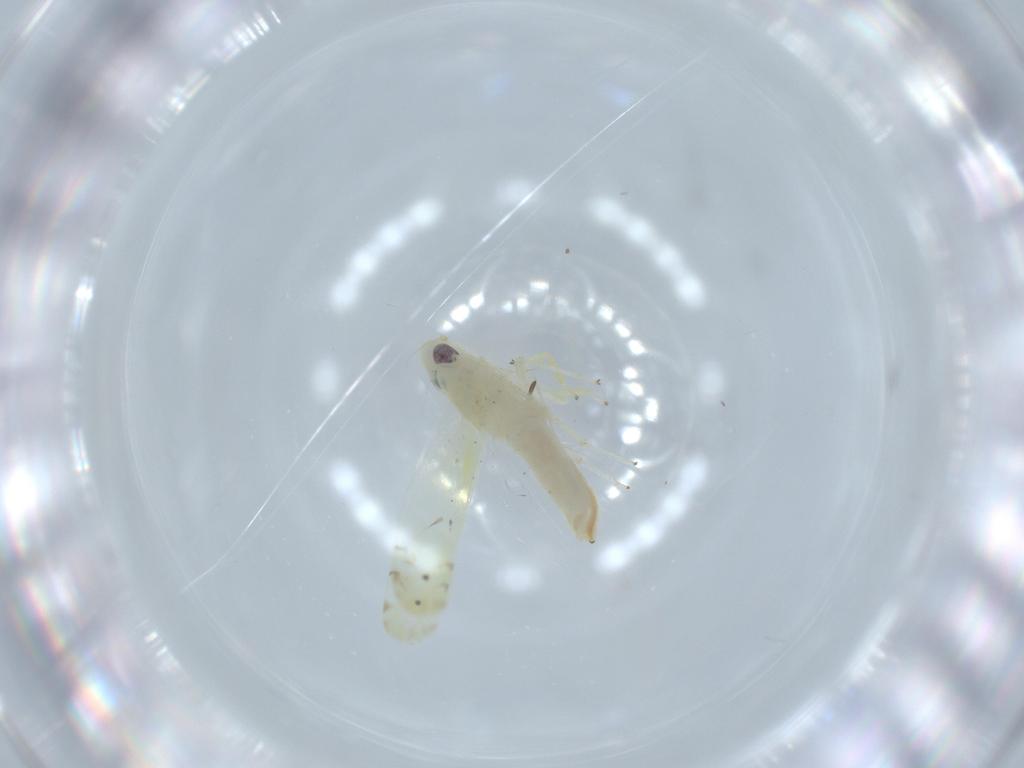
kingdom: Animalia
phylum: Arthropoda
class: Insecta
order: Hemiptera
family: Cicadellidae
